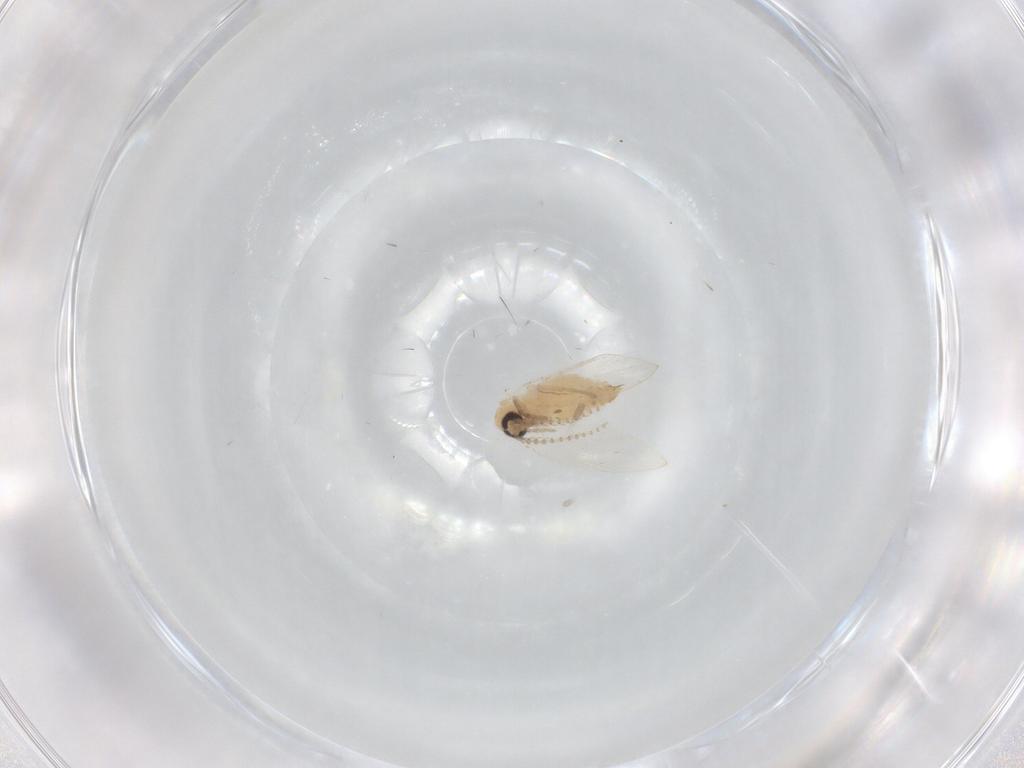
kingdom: Animalia
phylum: Arthropoda
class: Insecta
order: Diptera
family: Psychodidae
